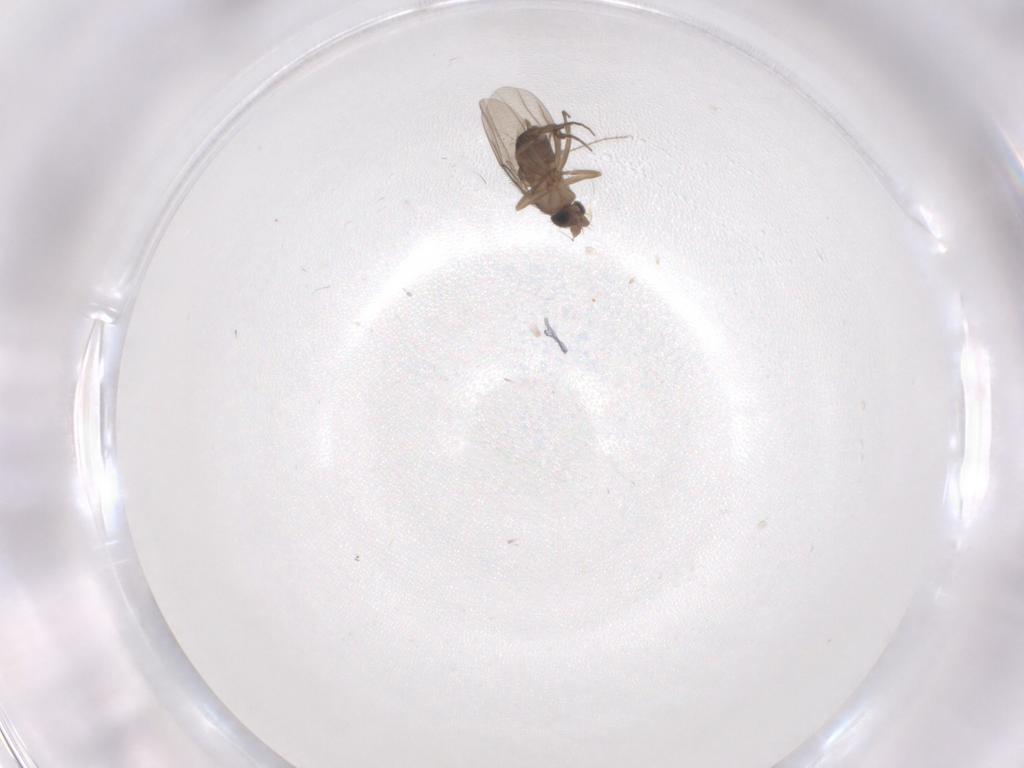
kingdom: Animalia
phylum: Arthropoda
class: Insecta
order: Diptera
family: Phoridae
